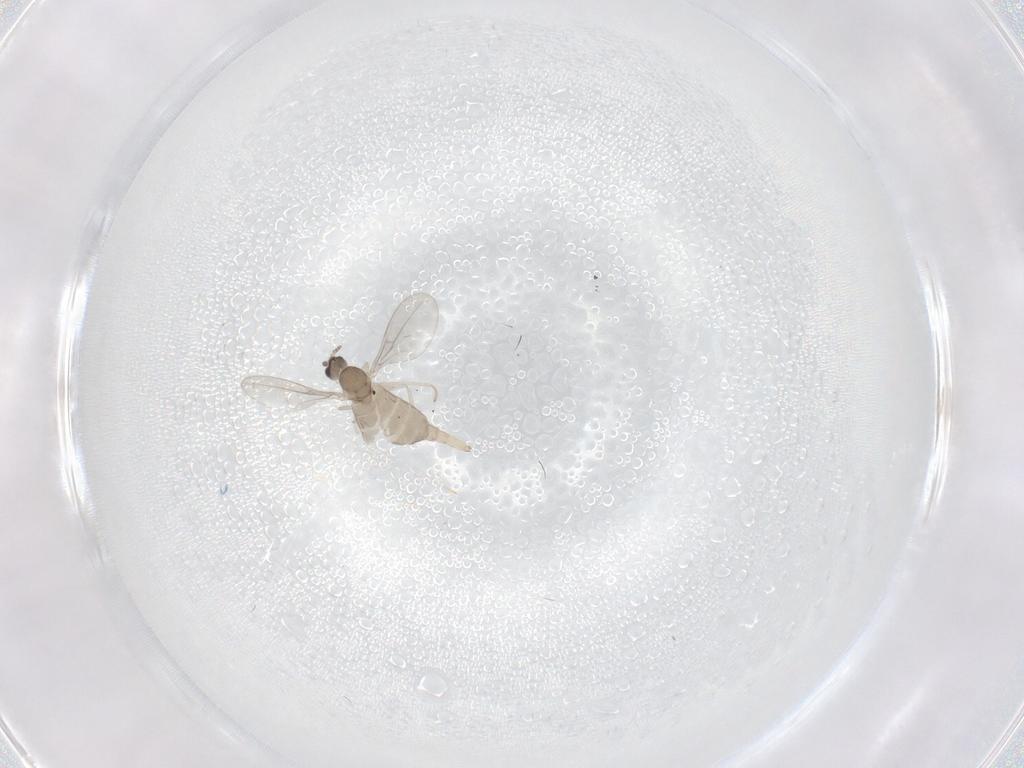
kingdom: Animalia
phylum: Arthropoda
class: Insecta
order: Diptera
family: Cecidomyiidae
